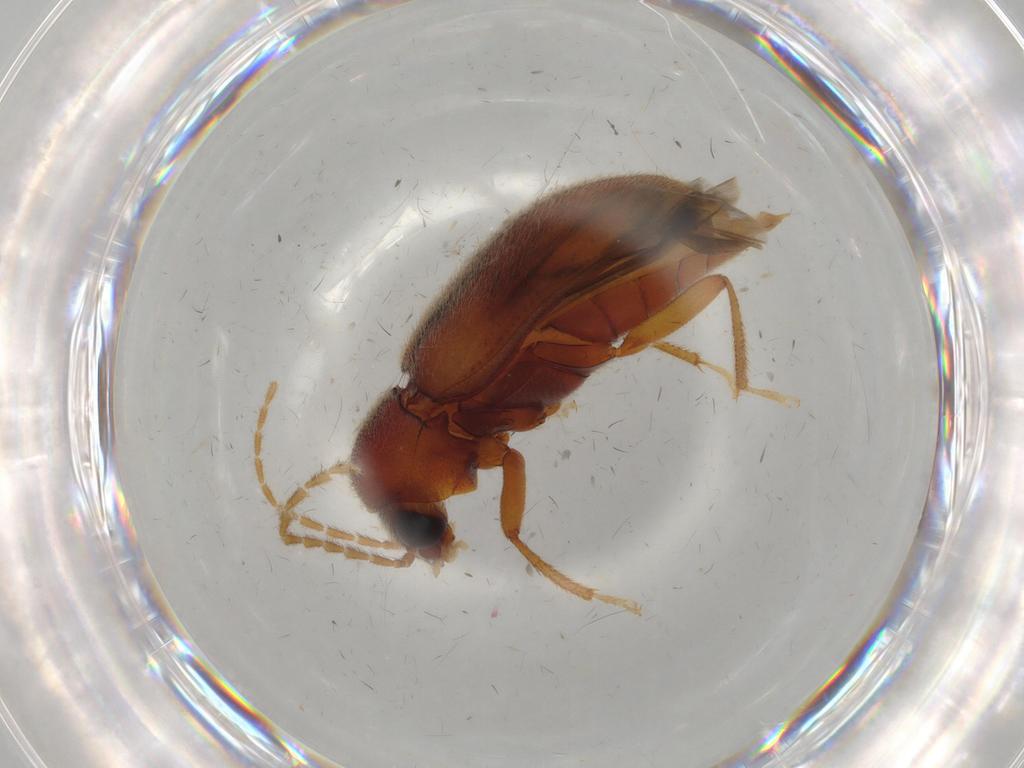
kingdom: Animalia
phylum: Arthropoda
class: Insecta
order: Coleoptera
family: Ptilodactylidae
